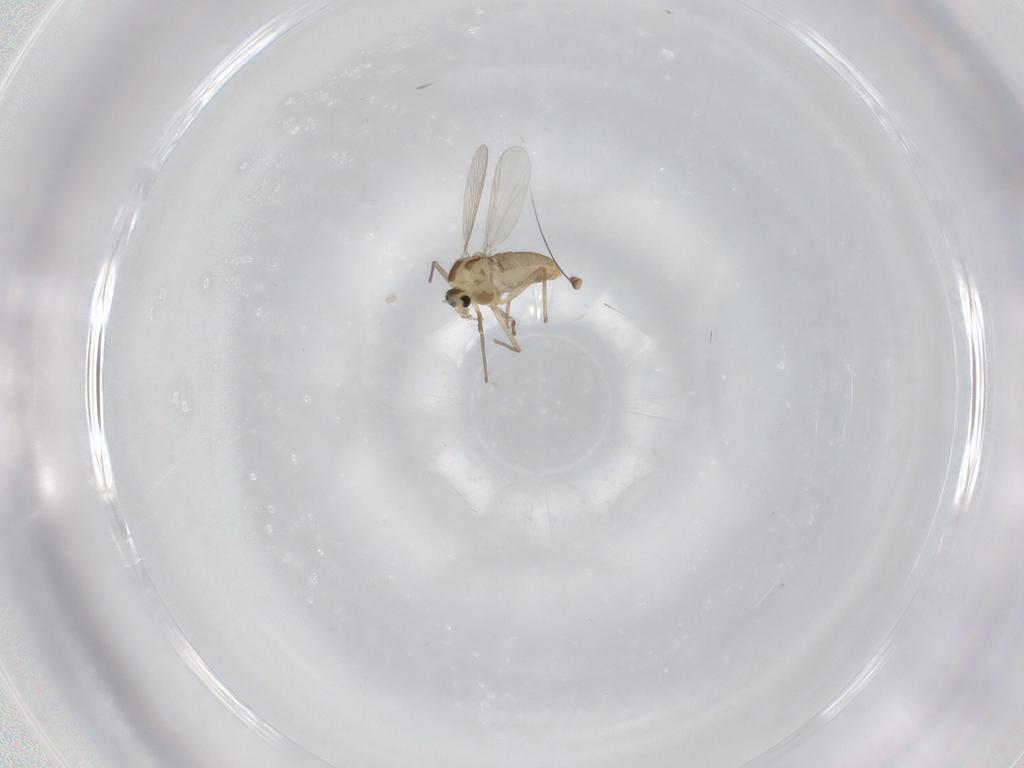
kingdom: Animalia
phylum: Arthropoda
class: Insecta
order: Diptera
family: Chironomidae
